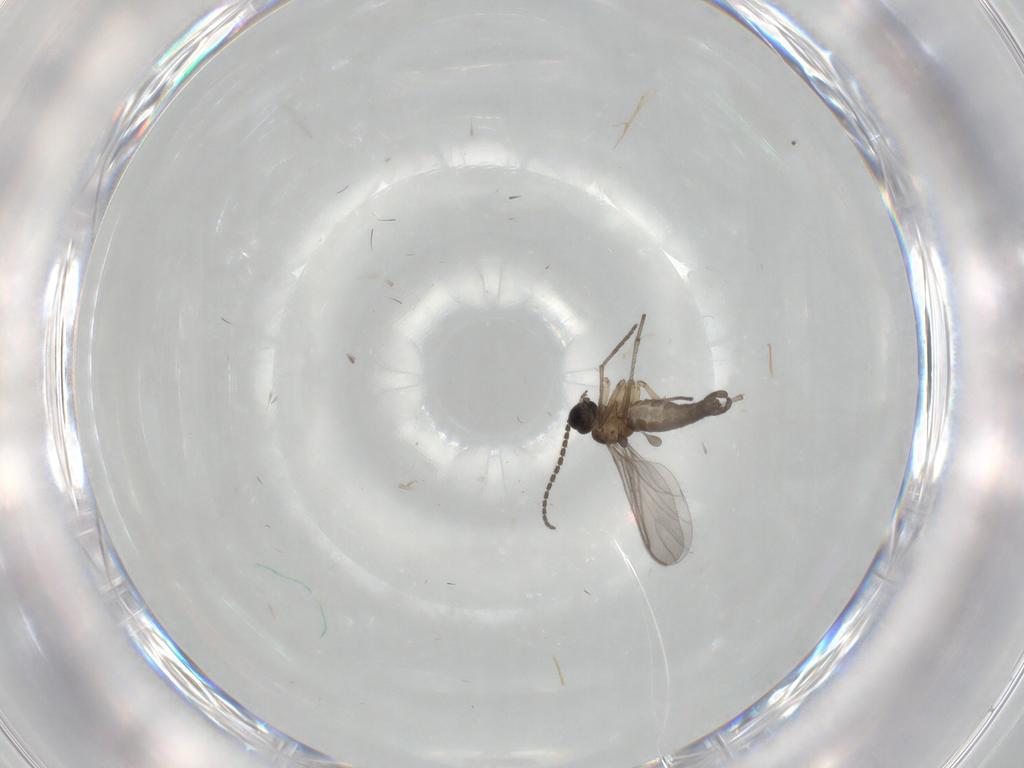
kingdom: Animalia
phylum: Arthropoda
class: Insecta
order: Diptera
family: Sciaridae
